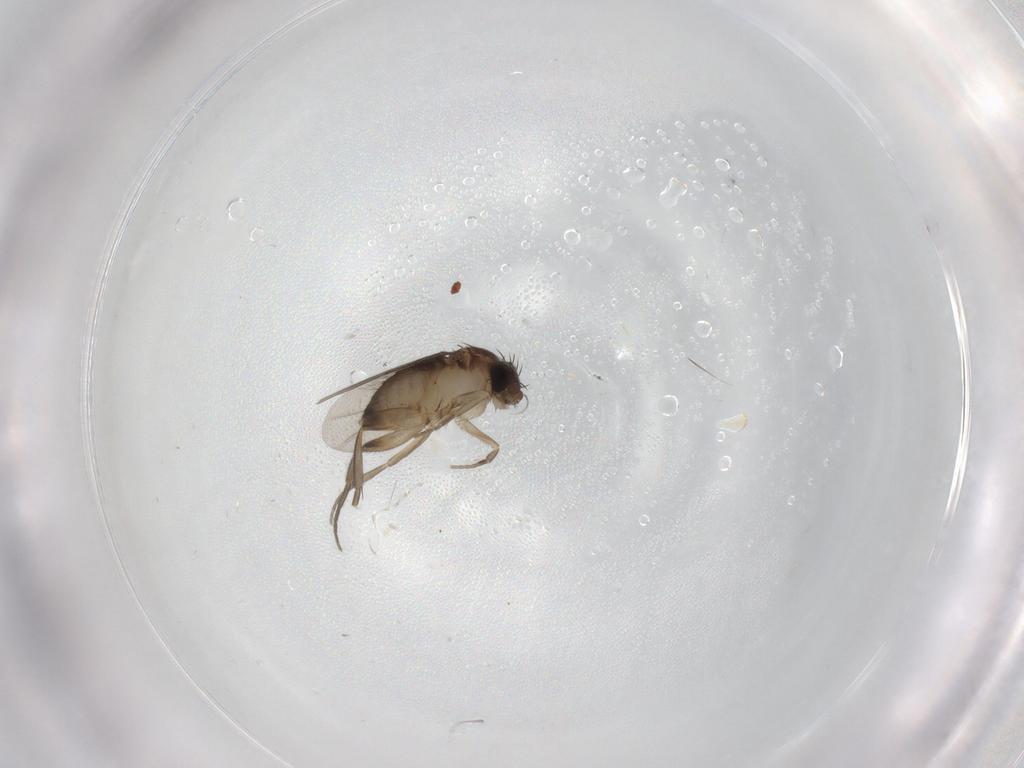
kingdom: Animalia
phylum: Arthropoda
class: Insecta
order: Diptera
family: Phoridae
